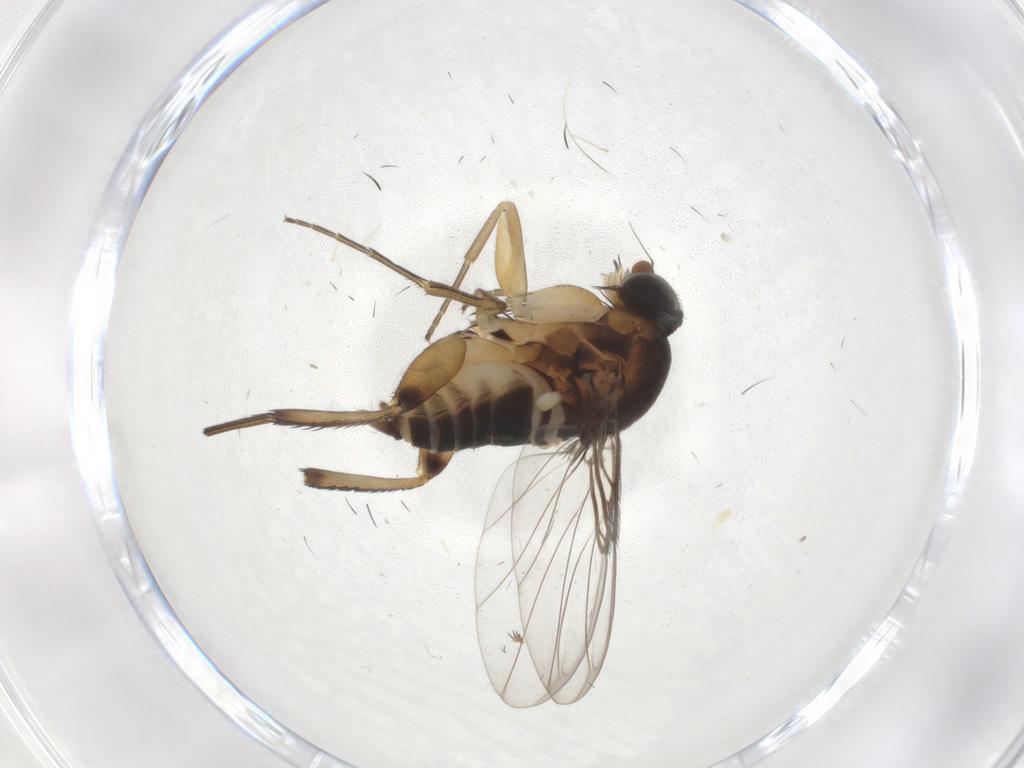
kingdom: Animalia
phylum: Arthropoda
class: Insecta
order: Diptera
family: Phoridae
